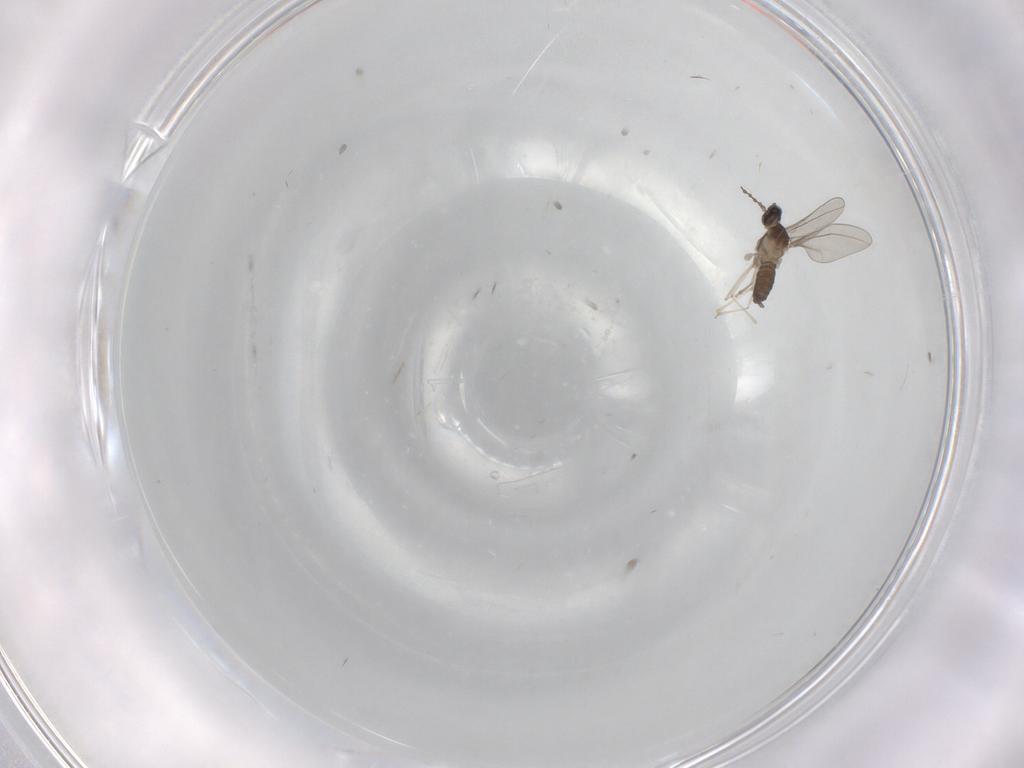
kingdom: Animalia
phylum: Arthropoda
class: Insecta
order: Diptera
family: Cecidomyiidae
